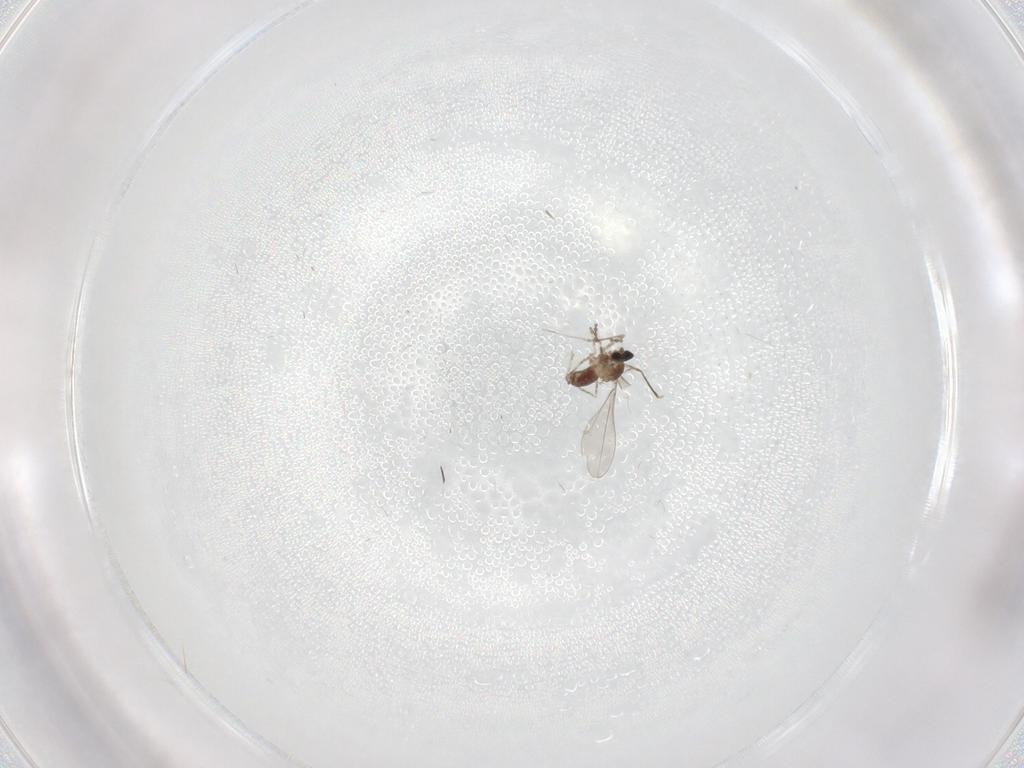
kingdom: Animalia
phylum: Arthropoda
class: Insecta
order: Diptera
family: Cecidomyiidae
